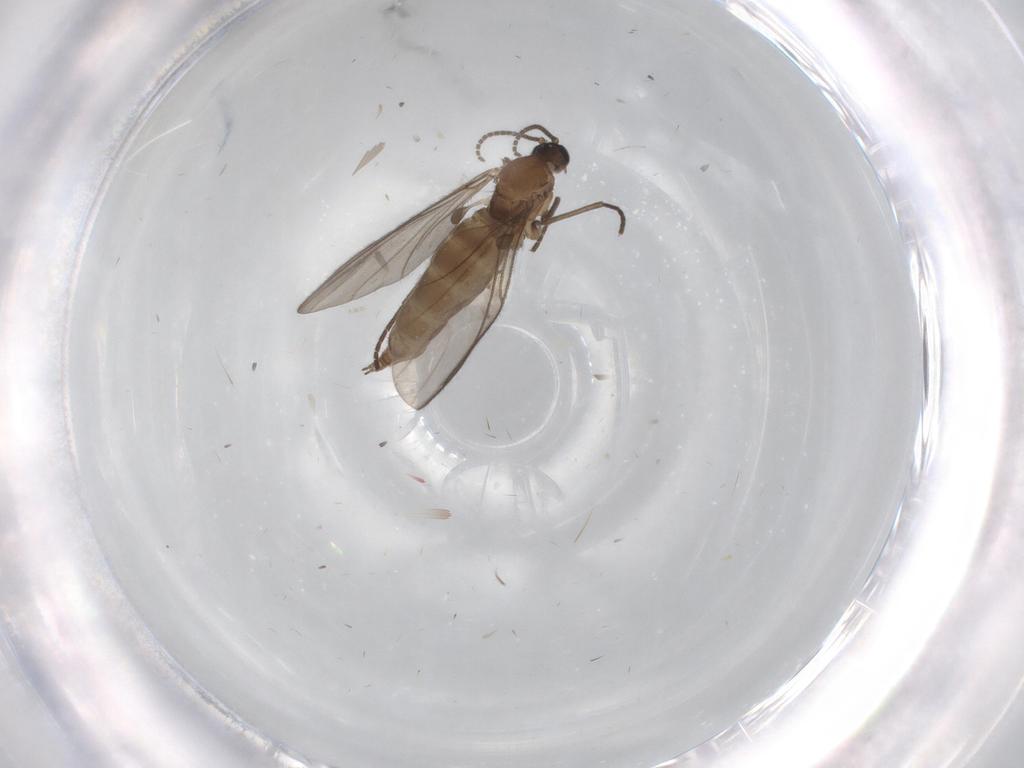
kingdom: Animalia
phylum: Arthropoda
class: Insecta
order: Diptera
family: Sciaridae
